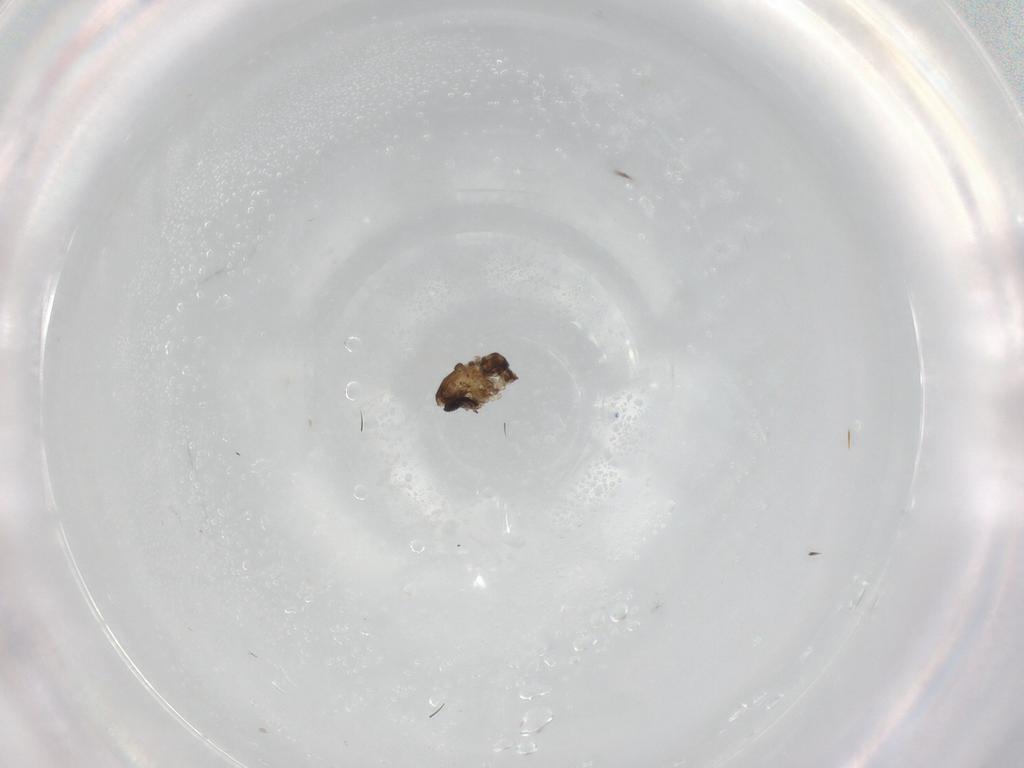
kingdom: Animalia
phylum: Arthropoda
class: Insecta
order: Diptera
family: Psychodidae
